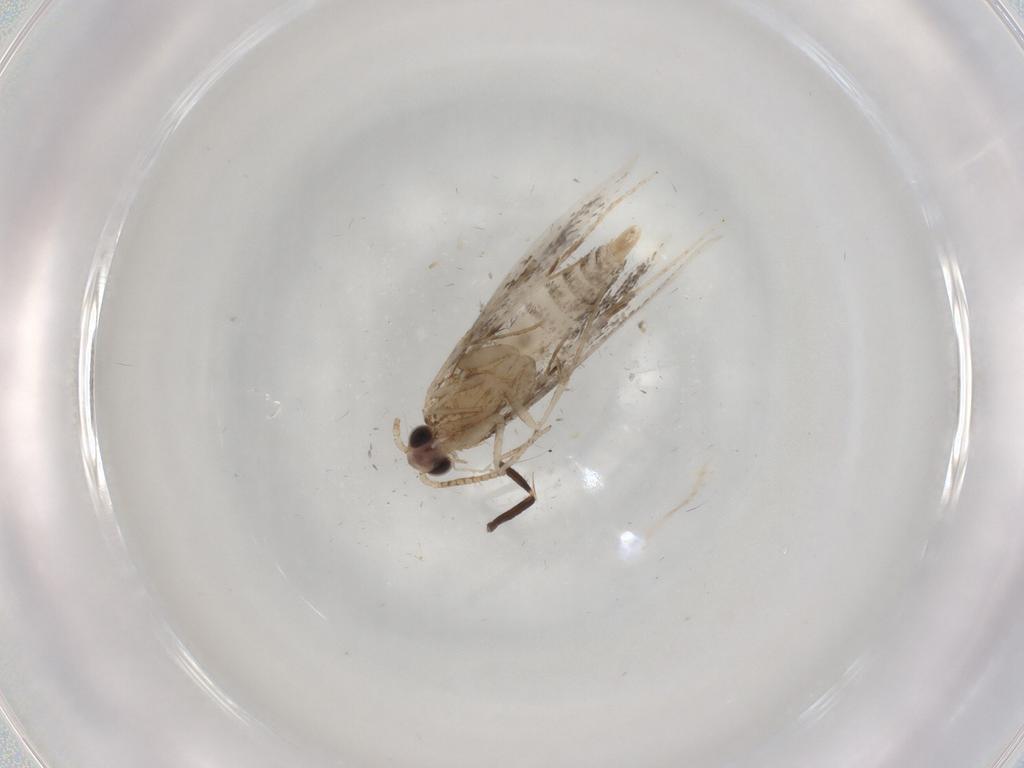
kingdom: Animalia
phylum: Arthropoda
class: Insecta
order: Lepidoptera
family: Tineidae
